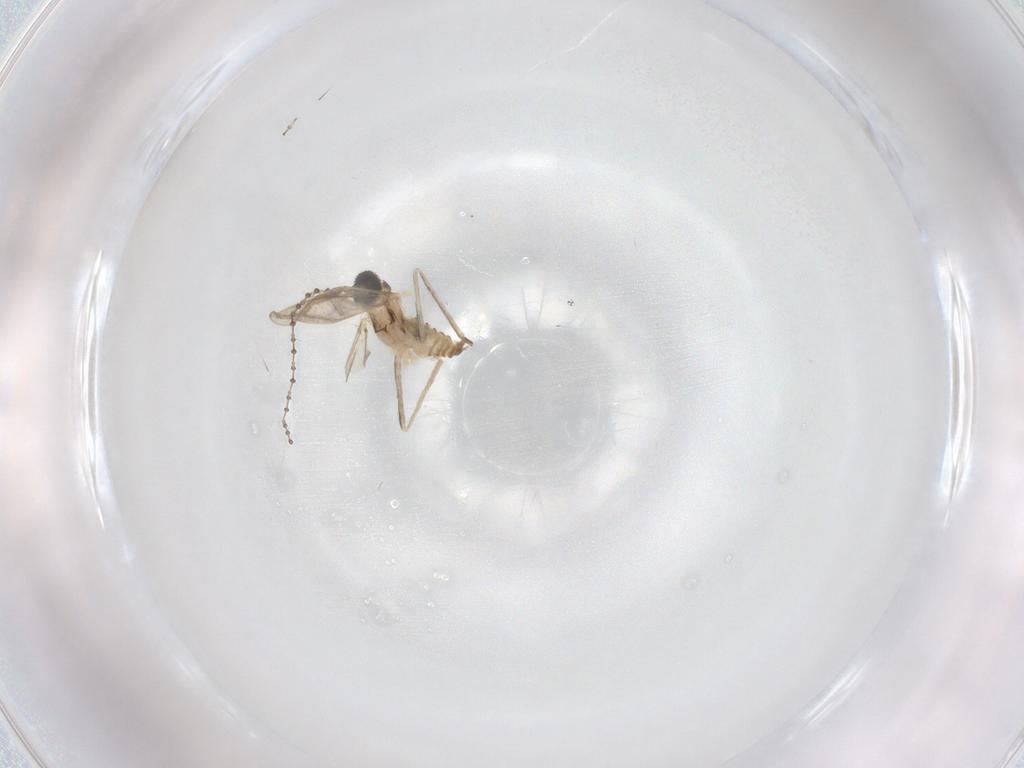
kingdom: Animalia
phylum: Arthropoda
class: Insecta
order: Diptera
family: Cecidomyiidae
